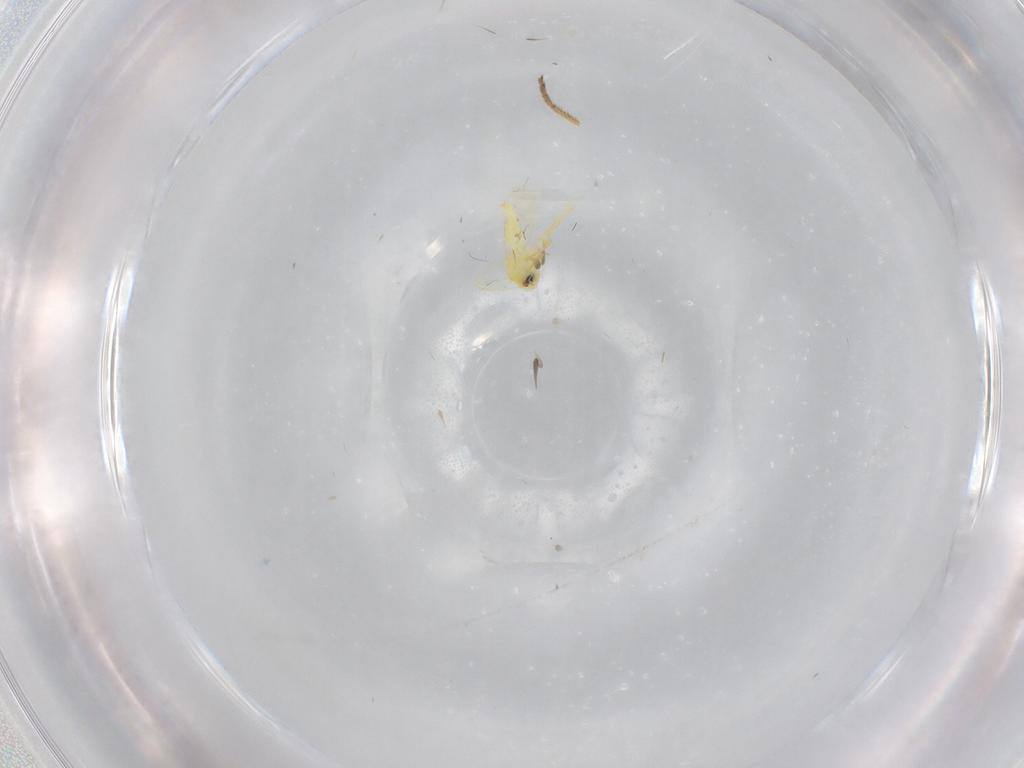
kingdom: Animalia
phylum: Arthropoda
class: Insecta
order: Hemiptera
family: Aleyrodidae
